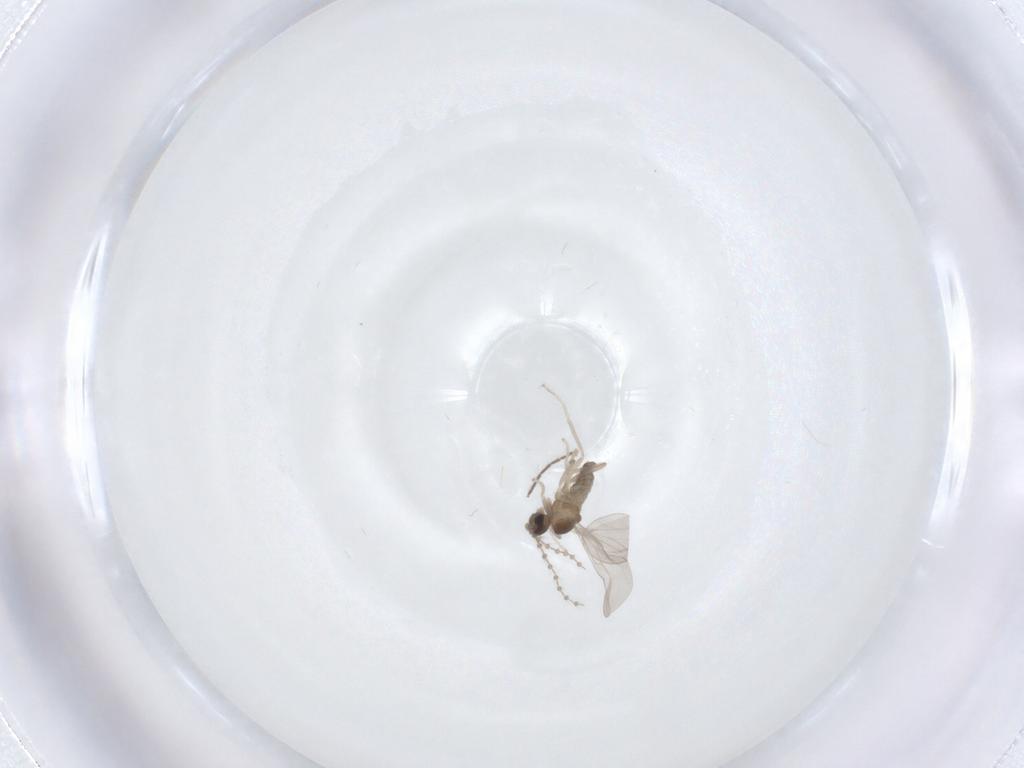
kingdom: Animalia
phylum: Arthropoda
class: Insecta
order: Diptera
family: Cecidomyiidae
